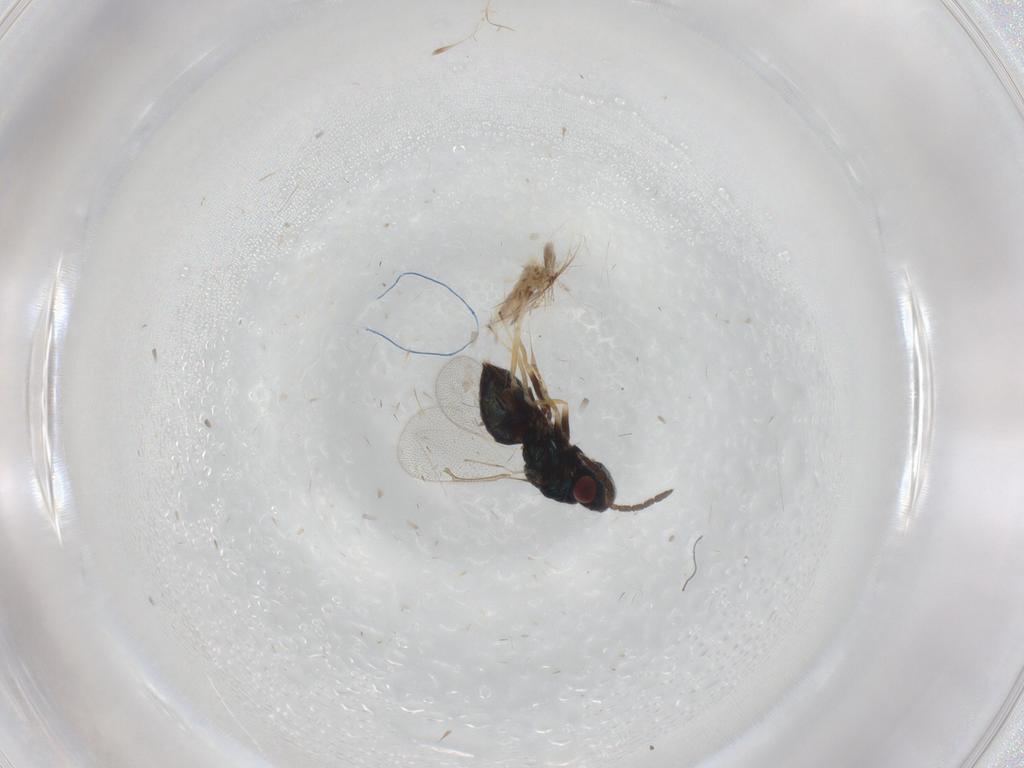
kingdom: Animalia
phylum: Arthropoda
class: Insecta
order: Hymenoptera
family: Eulophidae
